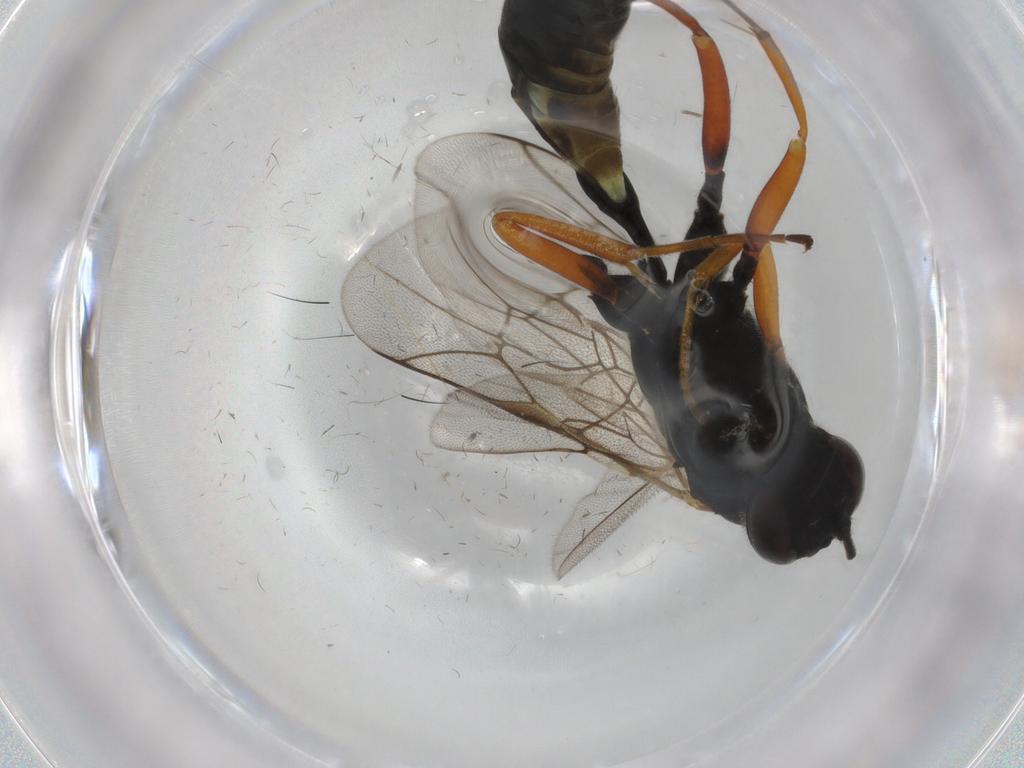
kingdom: Animalia
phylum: Arthropoda
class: Insecta
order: Hymenoptera
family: Ichneumonidae
